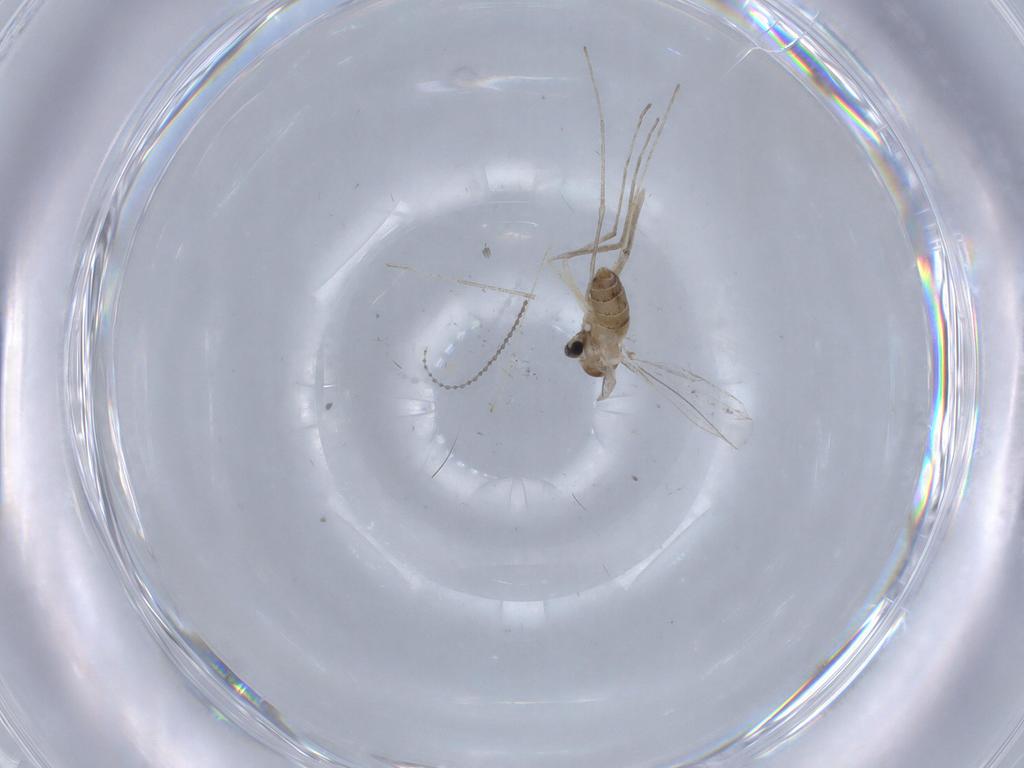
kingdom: Animalia
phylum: Arthropoda
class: Insecta
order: Diptera
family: Cecidomyiidae
